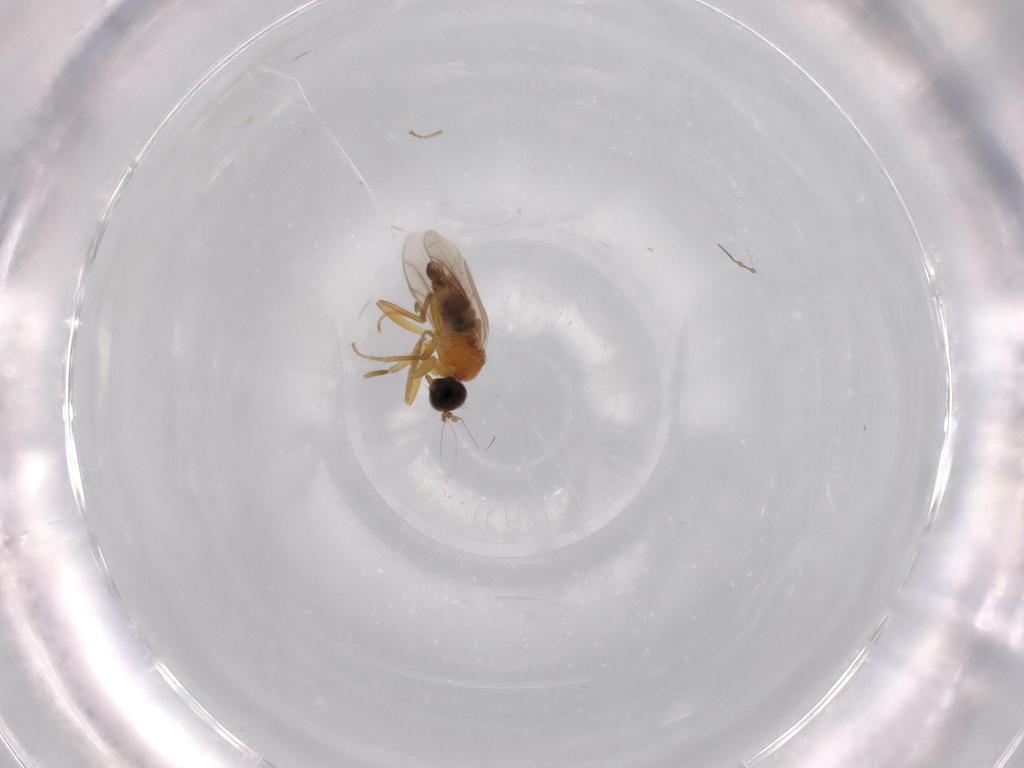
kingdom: Animalia
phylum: Arthropoda
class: Insecta
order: Diptera
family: Hybotidae
